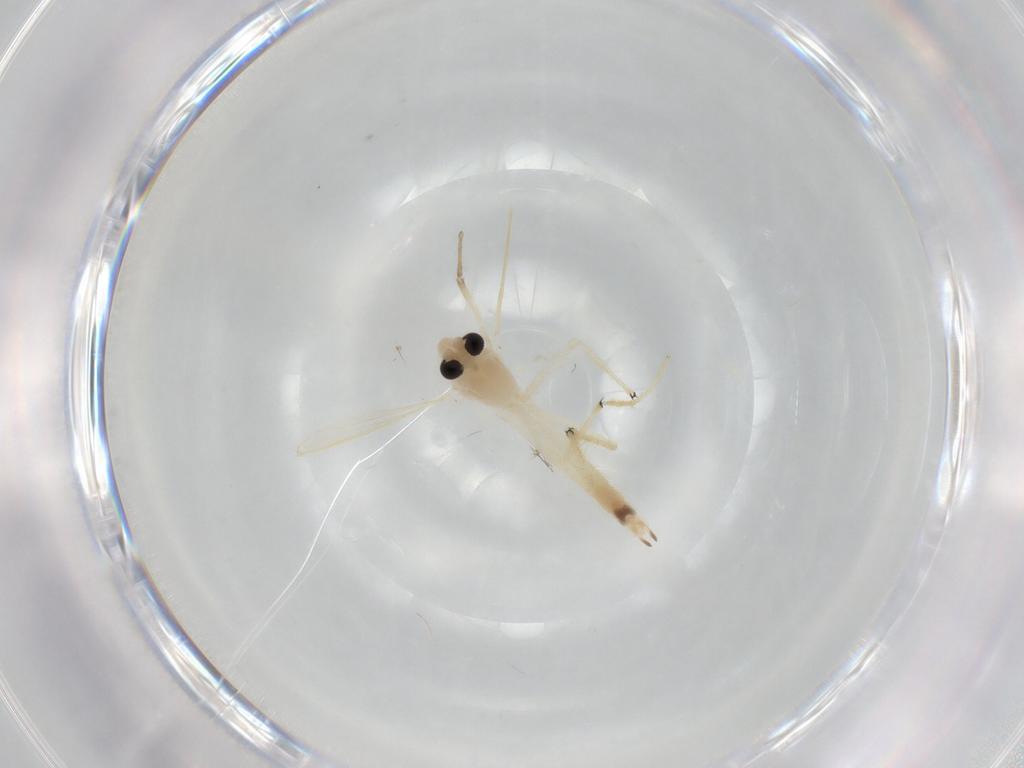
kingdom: Animalia
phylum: Arthropoda
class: Insecta
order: Diptera
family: Chironomidae
